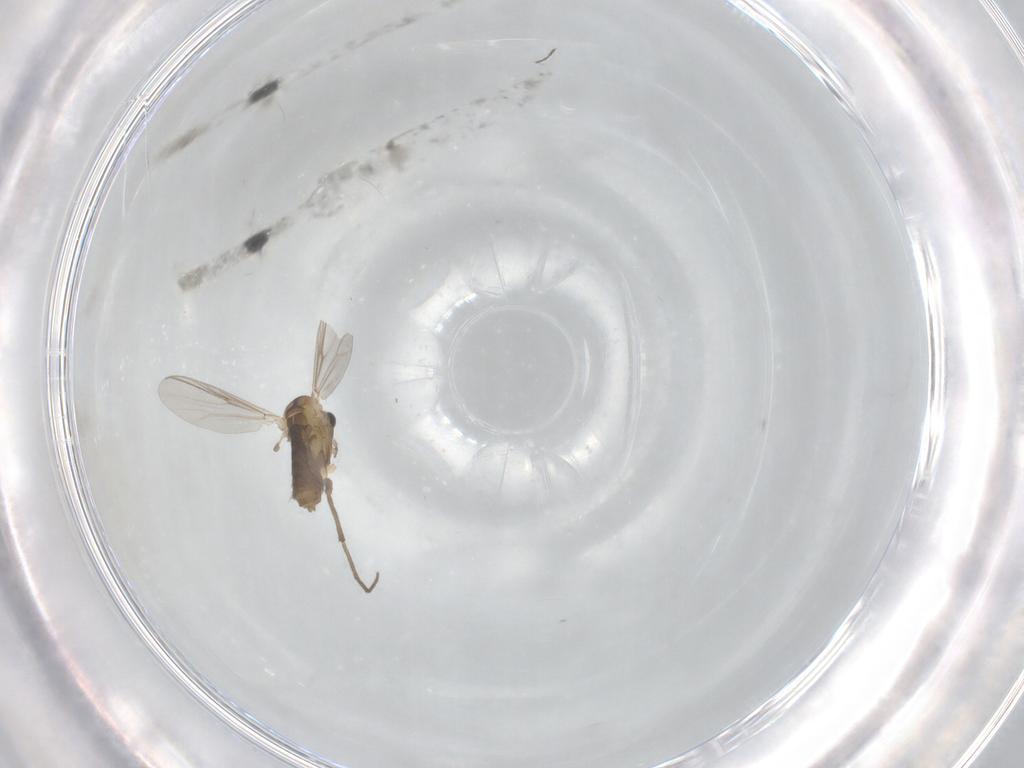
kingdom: Animalia
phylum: Arthropoda
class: Insecta
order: Diptera
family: Chironomidae
